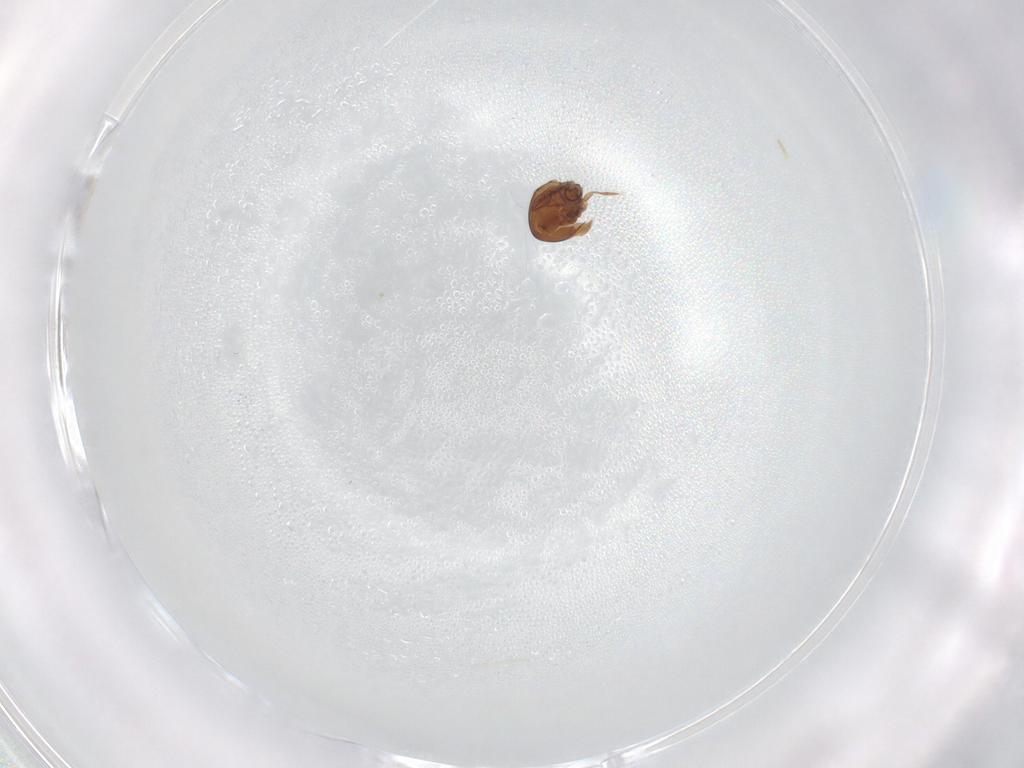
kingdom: Animalia
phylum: Arthropoda
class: Arachnida
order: Sarcoptiformes
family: Mochlozetidae
